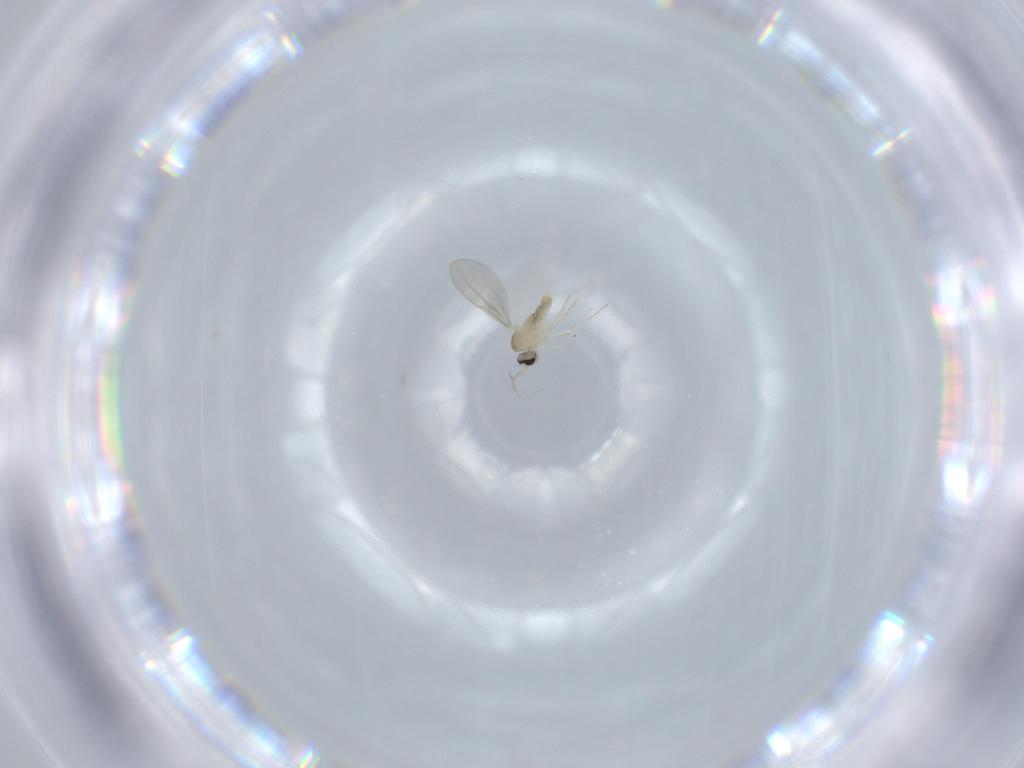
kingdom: Animalia
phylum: Arthropoda
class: Insecta
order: Diptera
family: Cecidomyiidae
